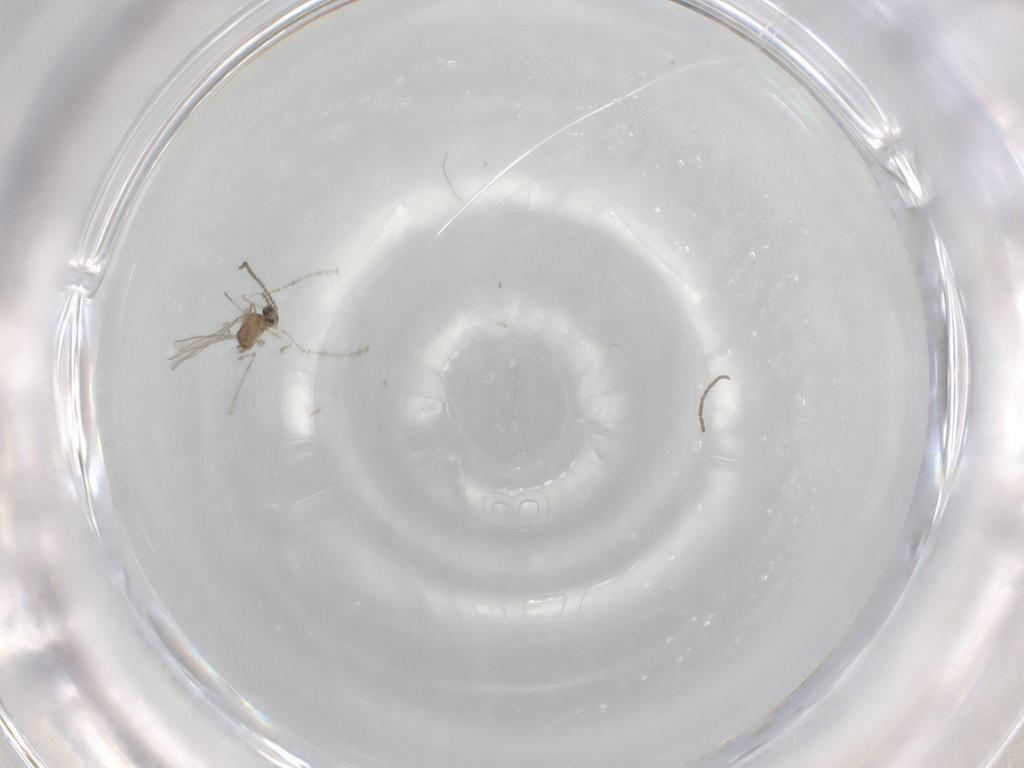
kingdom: Animalia
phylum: Arthropoda
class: Insecta
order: Diptera
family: Cecidomyiidae
